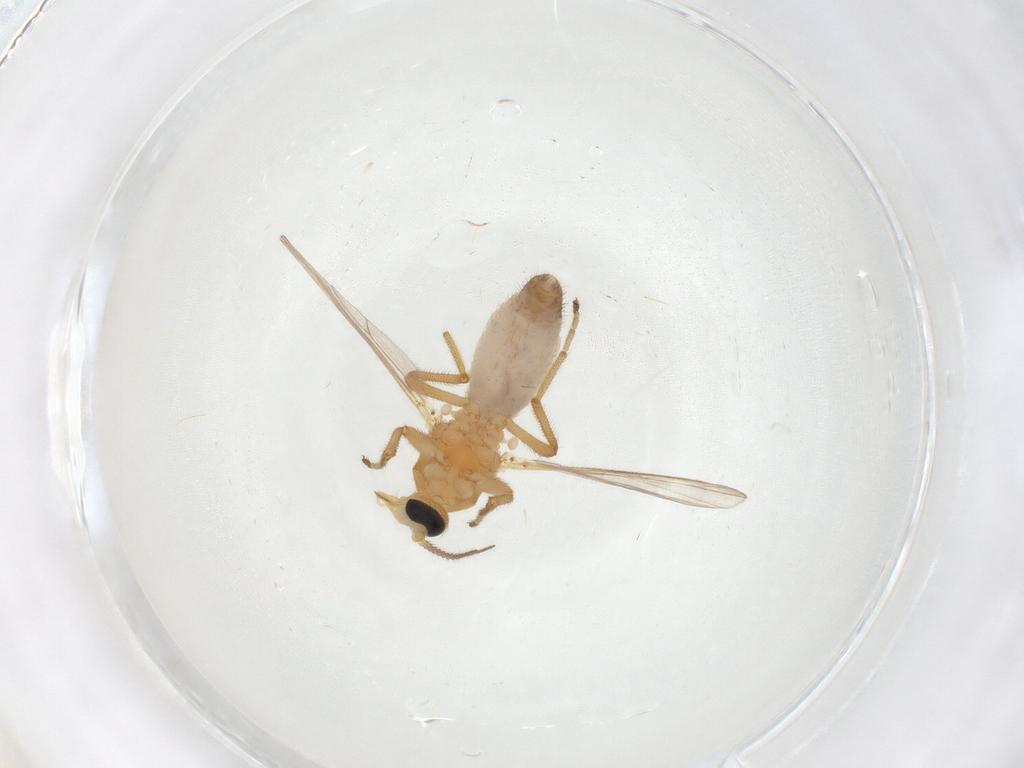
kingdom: Animalia
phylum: Arthropoda
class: Insecta
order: Diptera
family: Ceratopogonidae
